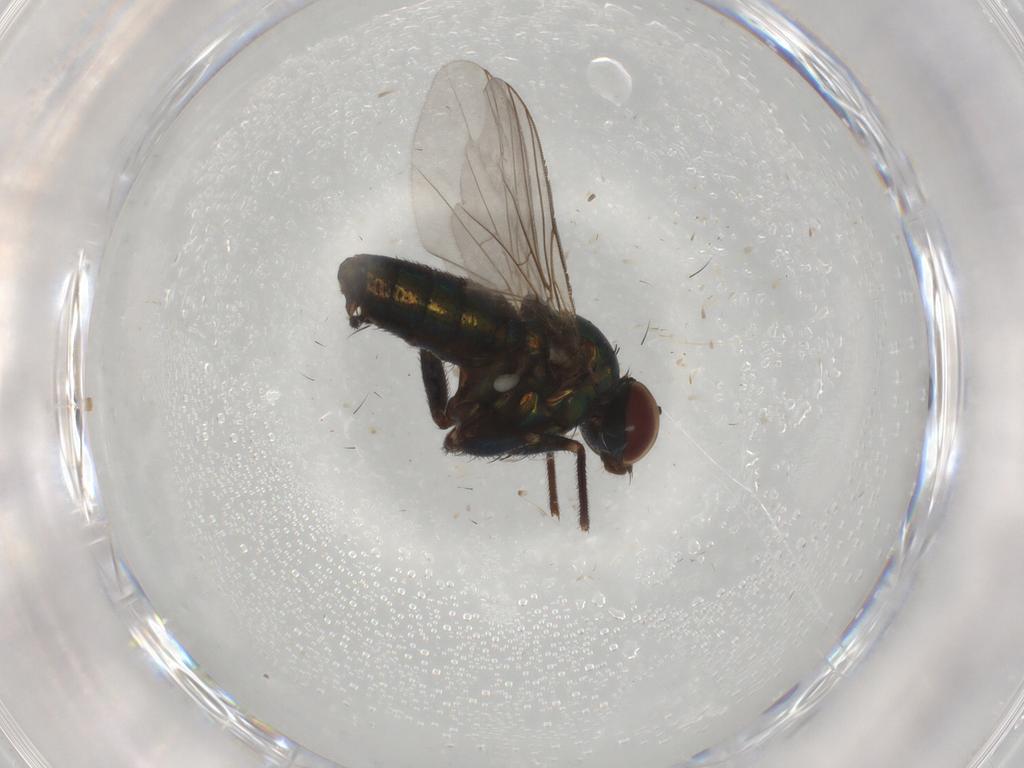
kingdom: Animalia
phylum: Arthropoda
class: Insecta
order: Diptera
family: Dolichopodidae
